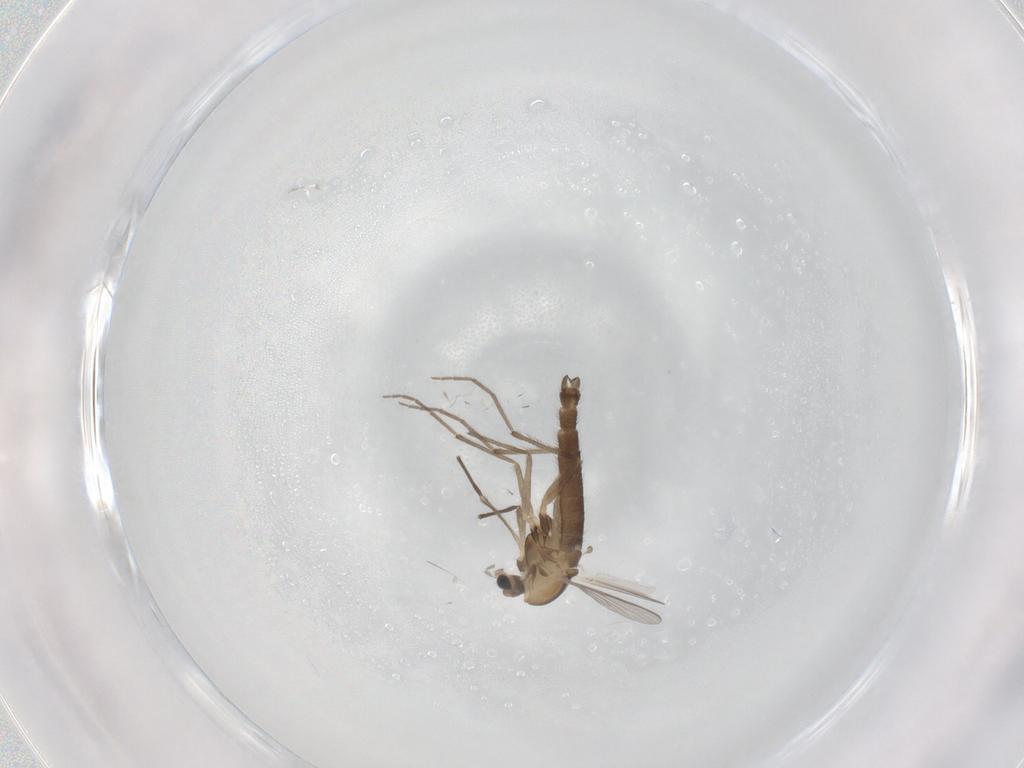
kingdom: Animalia
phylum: Arthropoda
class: Insecta
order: Diptera
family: Chironomidae
